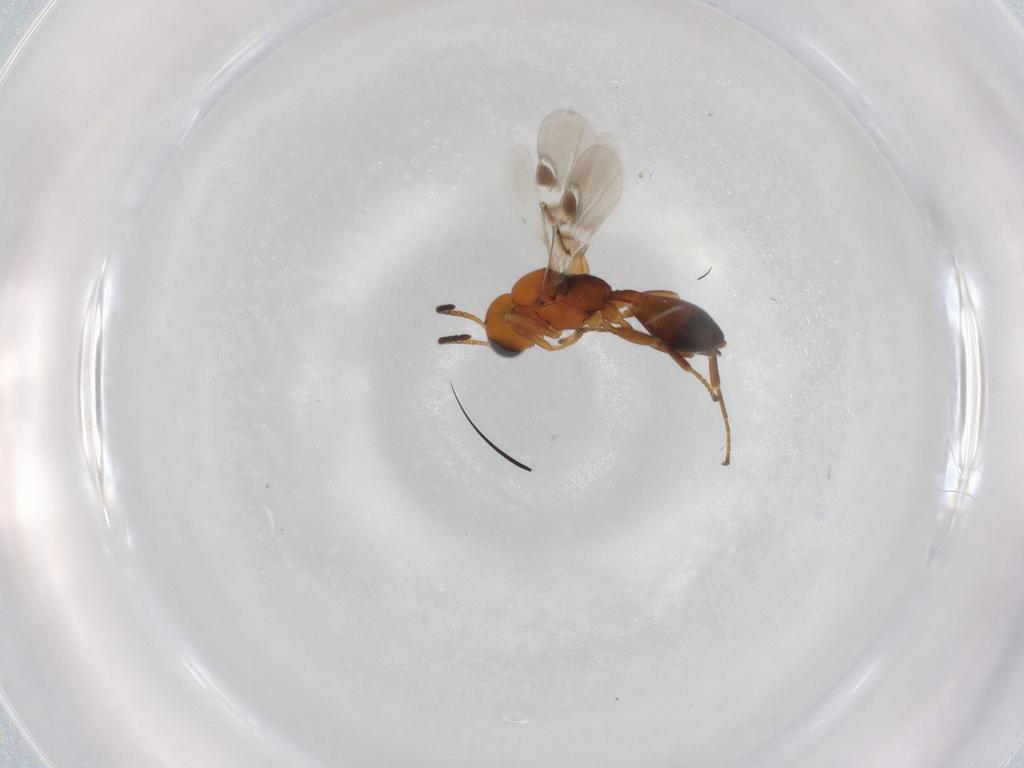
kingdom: Animalia
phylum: Arthropoda
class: Insecta
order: Hymenoptera
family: Braconidae
